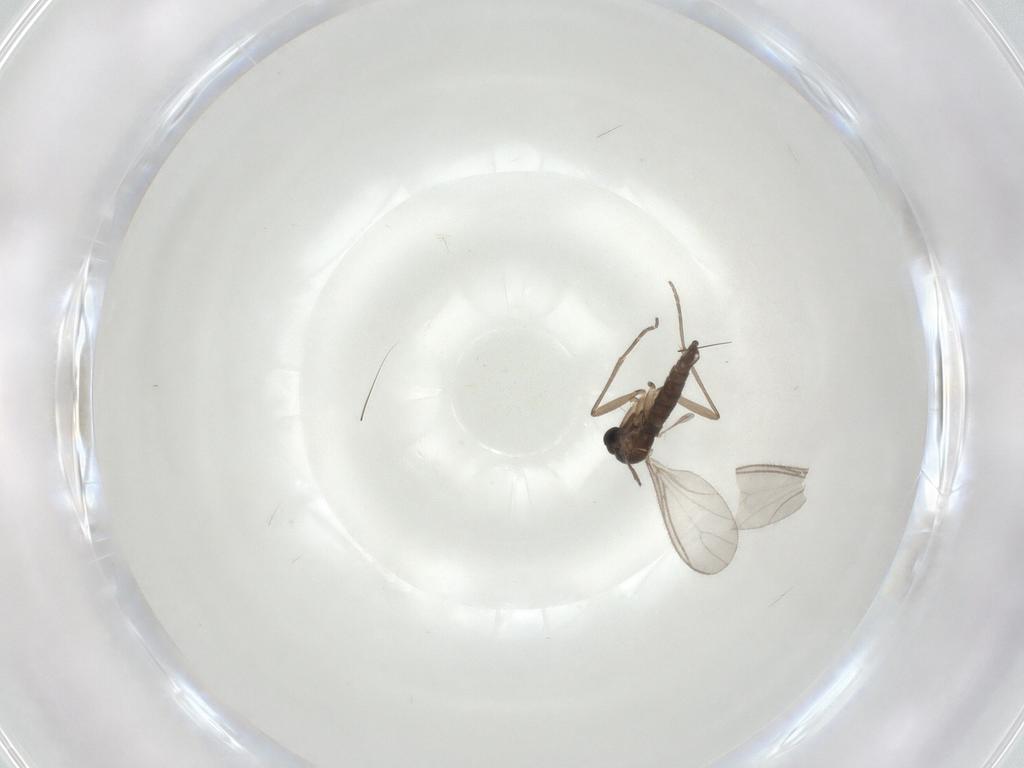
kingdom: Animalia
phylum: Arthropoda
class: Insecta
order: Diptera
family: Sciaridae
